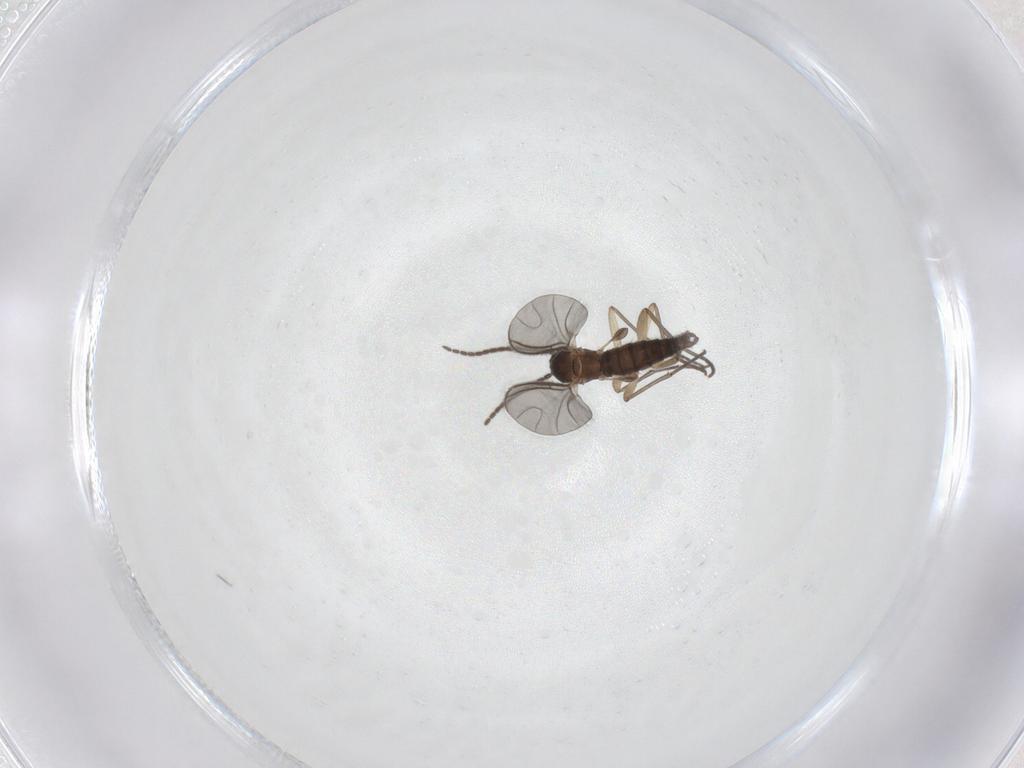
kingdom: Animalia
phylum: Arthropoda
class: Insecta
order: Diptera
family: Sciaridae
